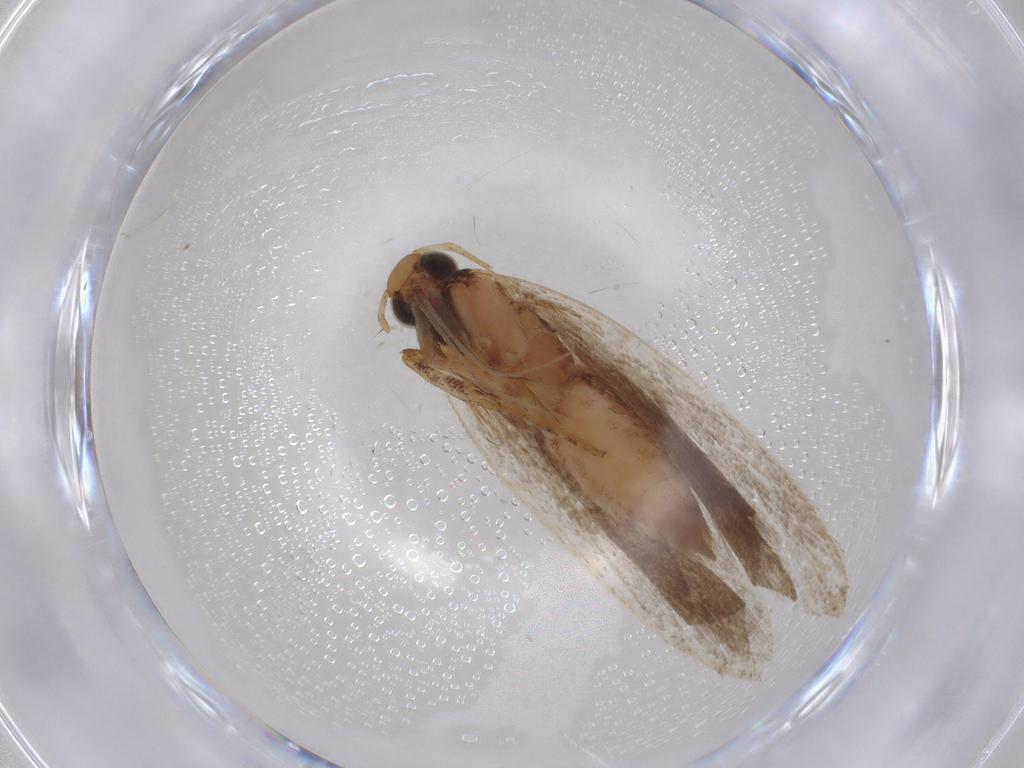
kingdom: Animalia
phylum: Arthropoda
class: Insecta
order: Lepidoptera
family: Gelechiidae
